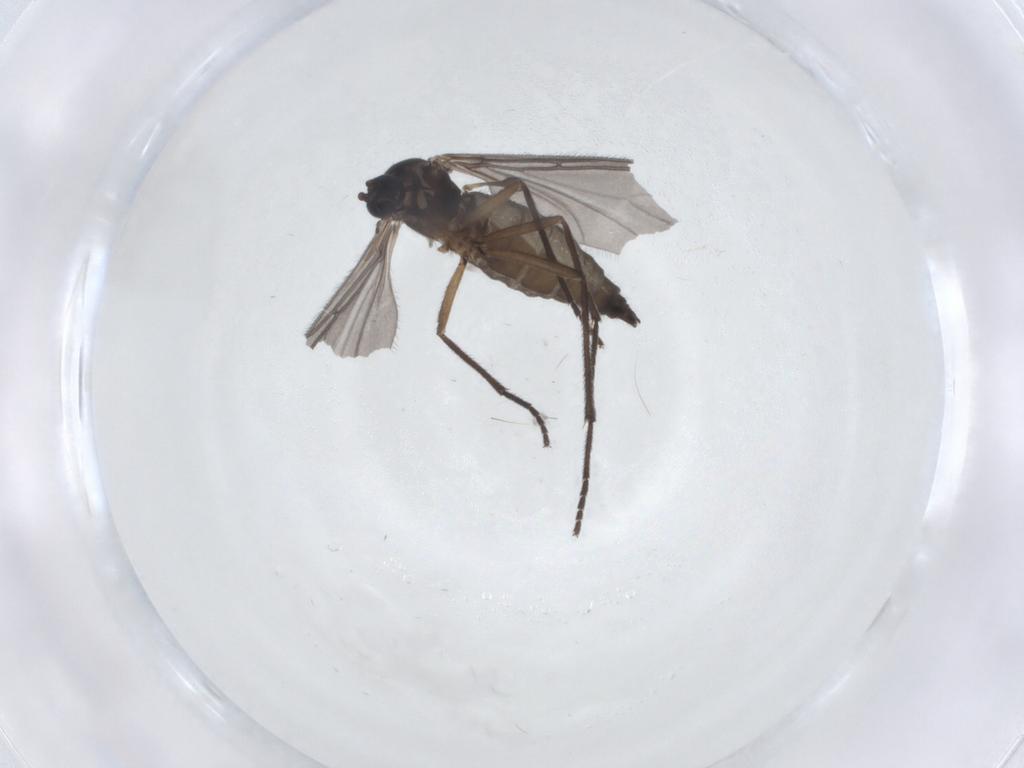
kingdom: Animalia
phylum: Arthropoda
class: Insecta
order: Diptera
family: Sciaridae
